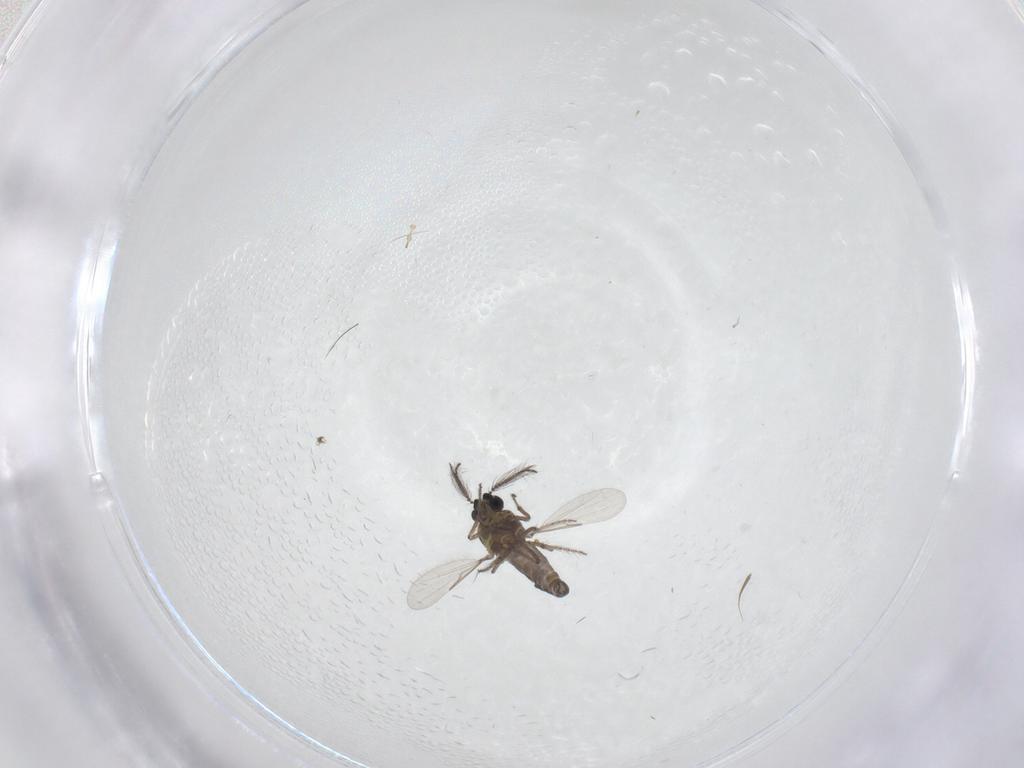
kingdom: Animalia
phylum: Arthropoda
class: Insecta
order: Diptera
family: Cecidomyiidae
